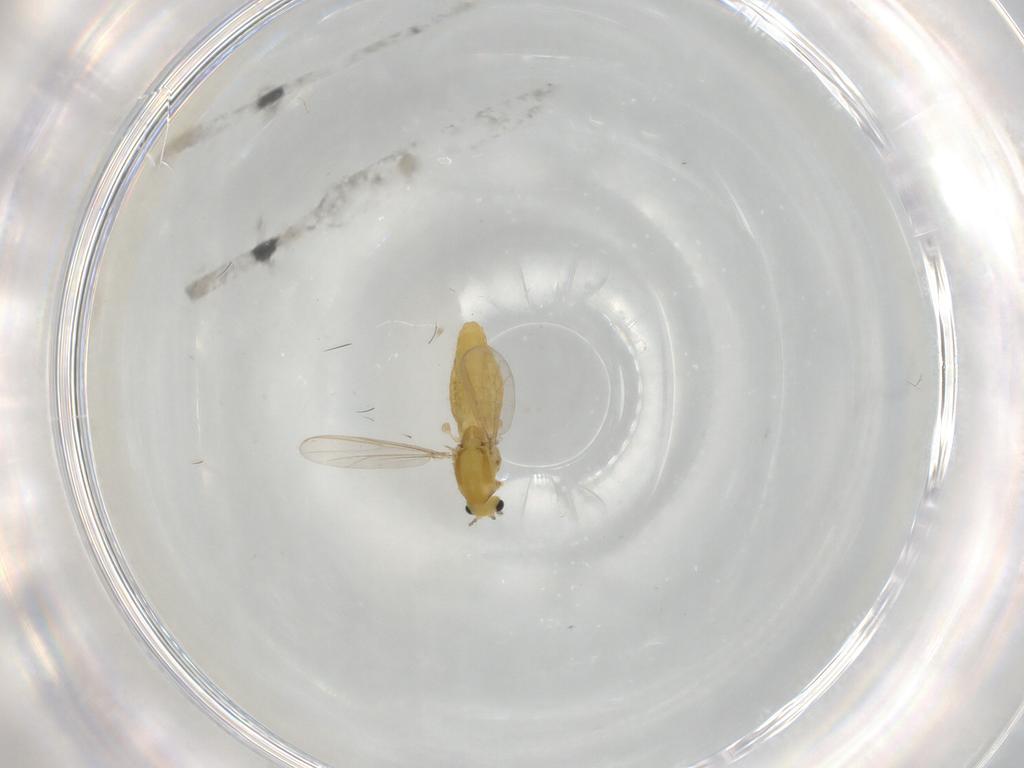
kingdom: Animalia
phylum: Arthropoda
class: Insecta
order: Diptera
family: Chironomidae
